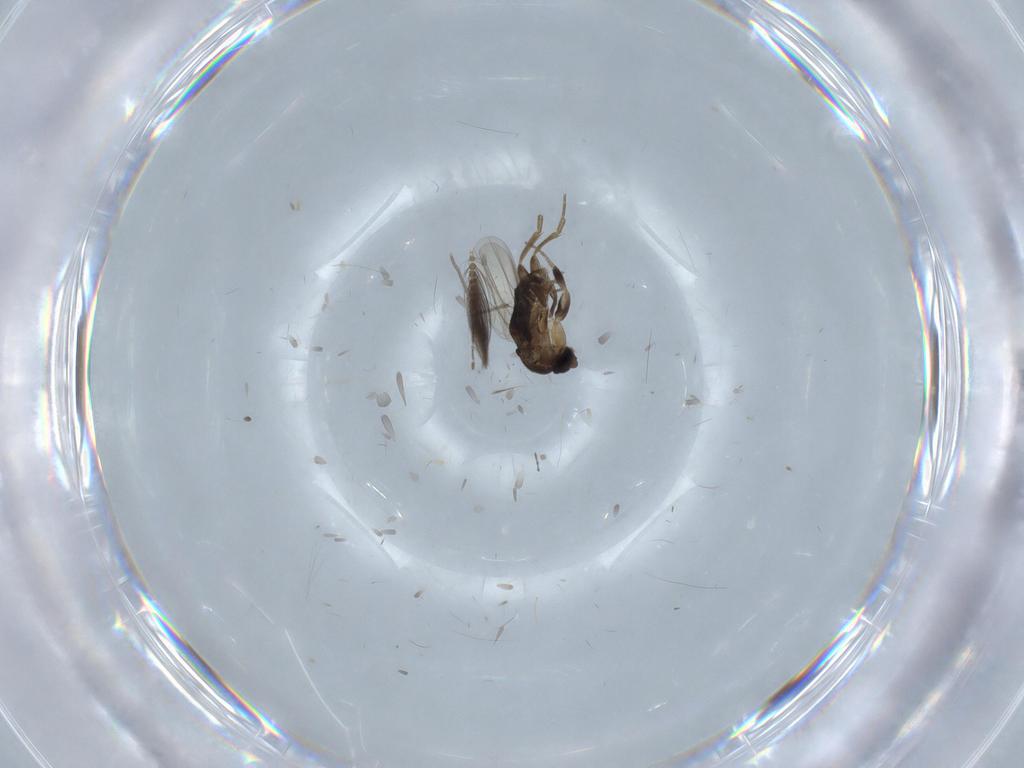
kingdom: Animalia
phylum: Arthropoda
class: Insecta
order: Diptera
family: Phoridae
